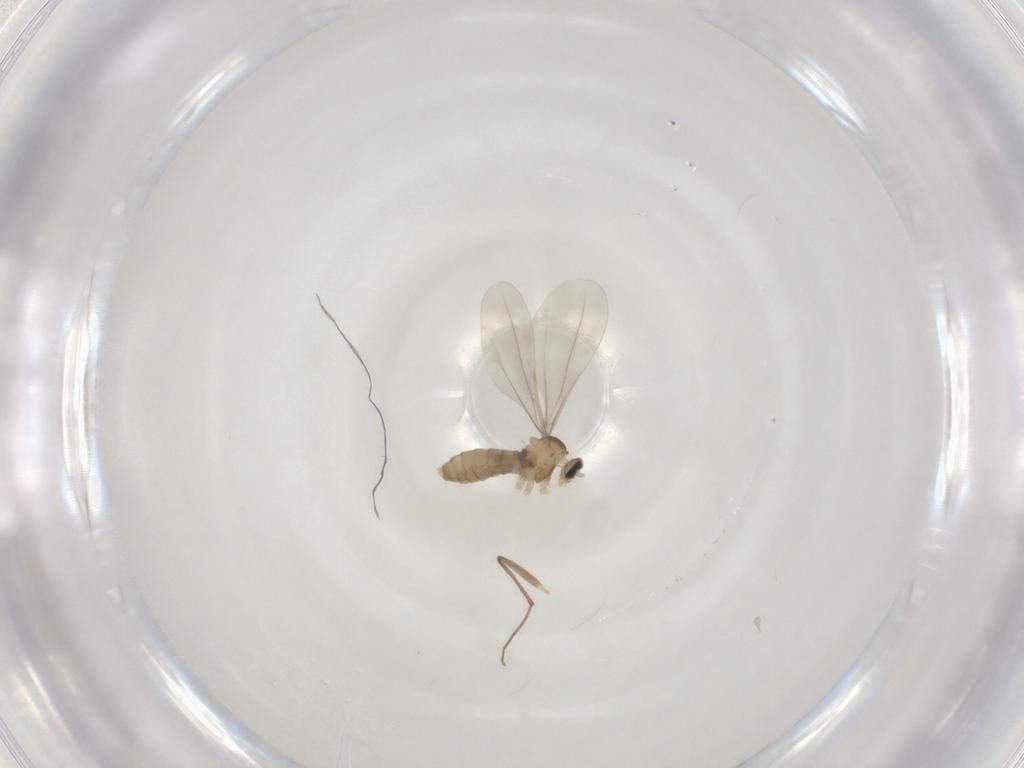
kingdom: Animalia
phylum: Arthropoda
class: Insecta
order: Diptera
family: Cecidomyiidae
